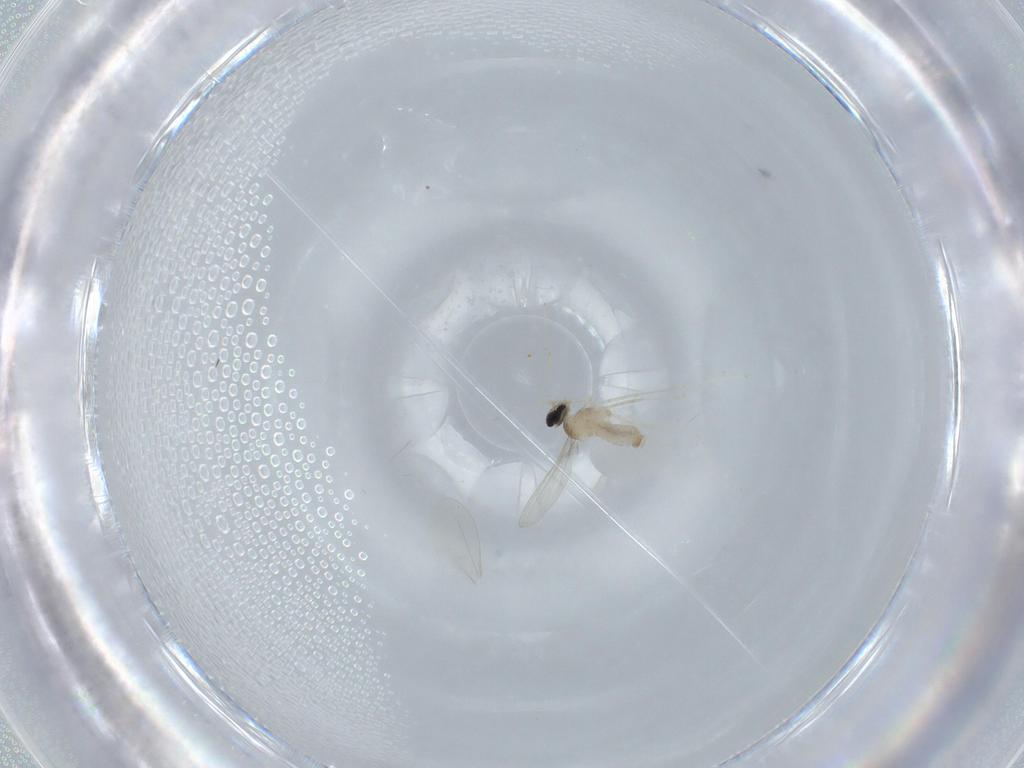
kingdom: Animalia
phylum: Arthropoda
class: Insecta
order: Diptera
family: Cecidomyiidae
